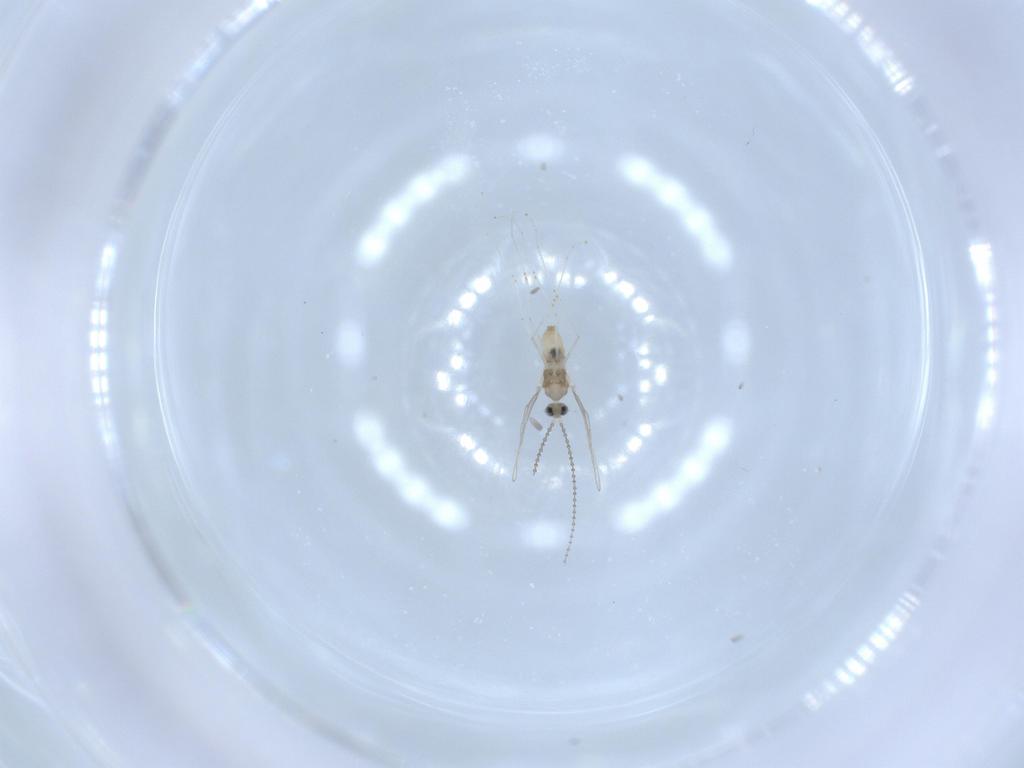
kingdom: Animalia
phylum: Arthropoda
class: Insecta
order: Diptera
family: Cecidomyiidae
